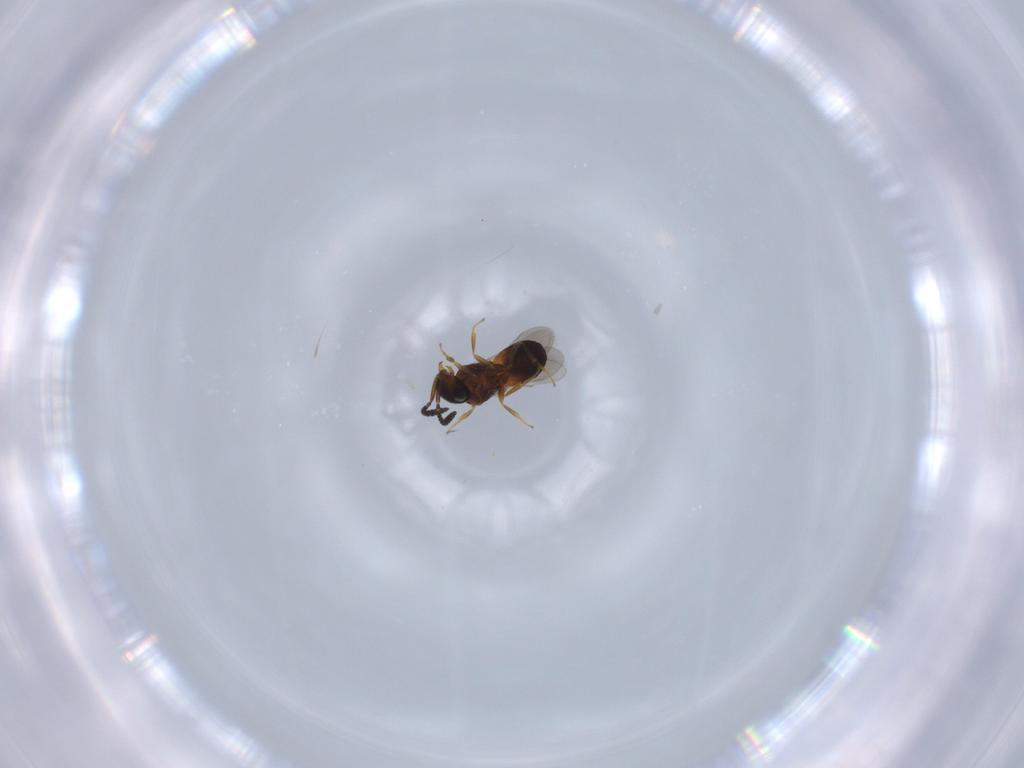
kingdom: Animalia
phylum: Arthropoda
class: Insecta
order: Hymenoptera
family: Scelionidae
